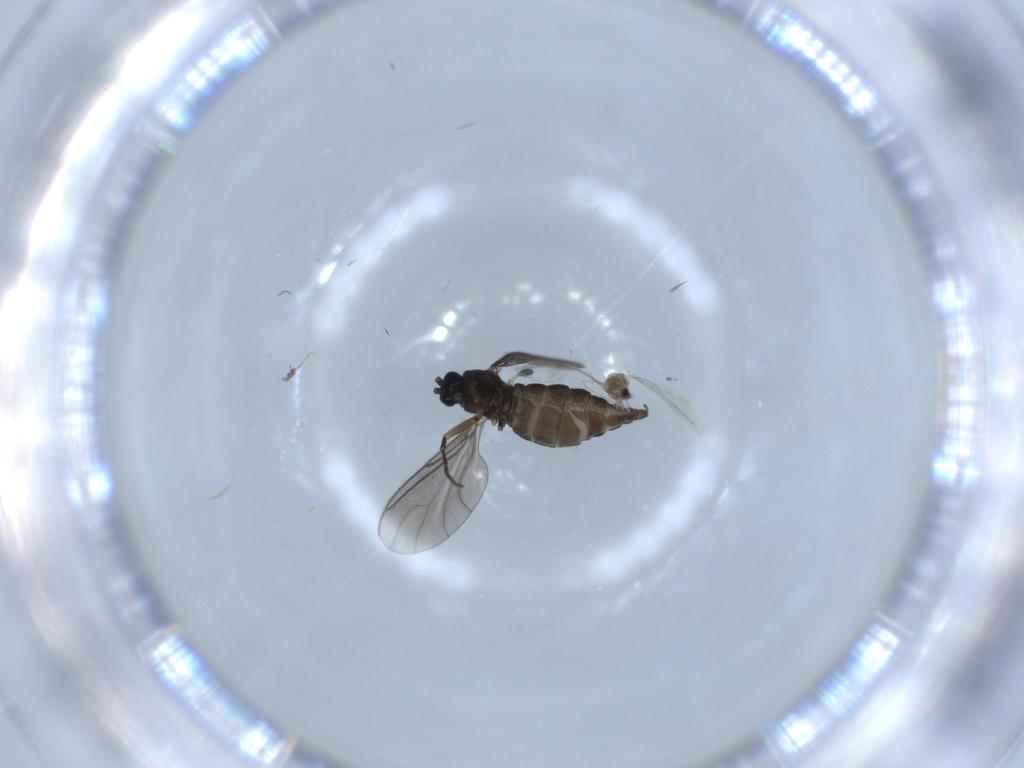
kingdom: Animalia
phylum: Arthropoda
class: Insecta
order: Diptera
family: Sciaridae
